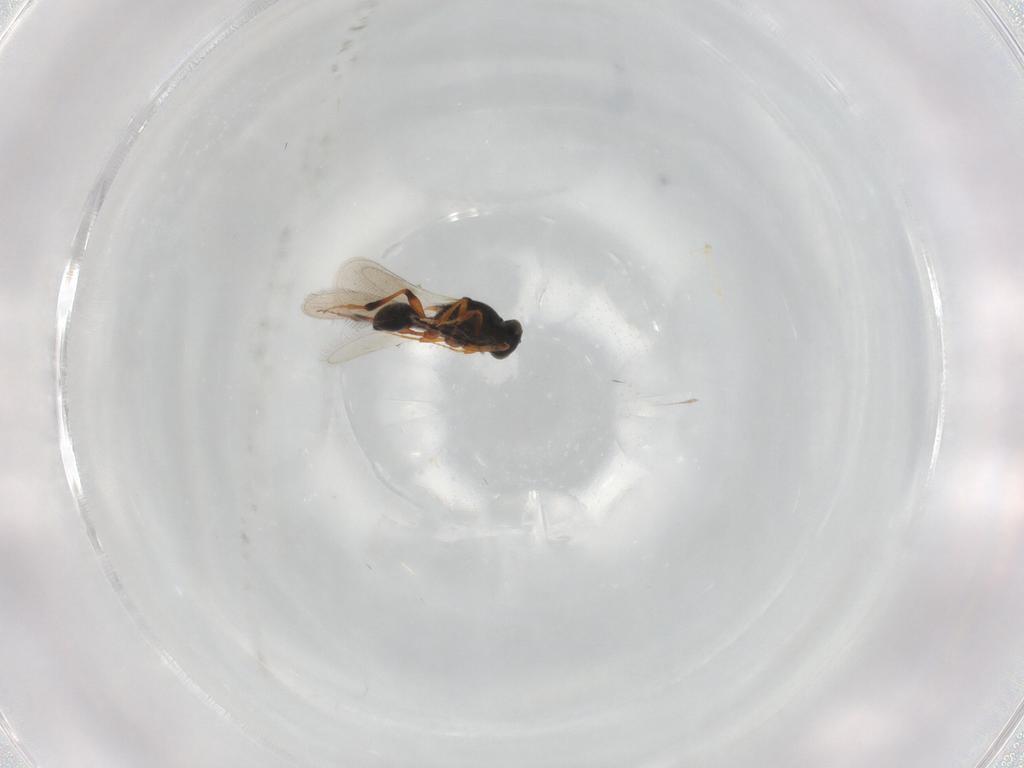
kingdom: Animalia
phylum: Arthropoda
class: Insecta
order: Hymenoptera
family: Platygastridae
